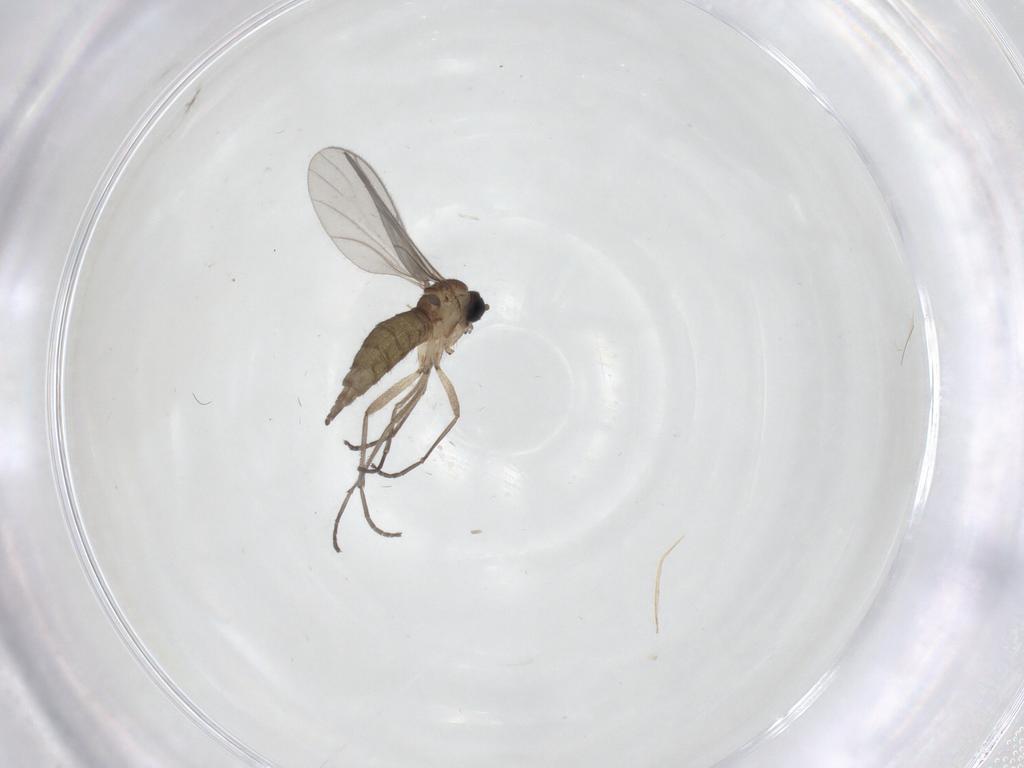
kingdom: Animalia
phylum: Arthropoda
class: Insecta
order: Diptera
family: Sciaridae
